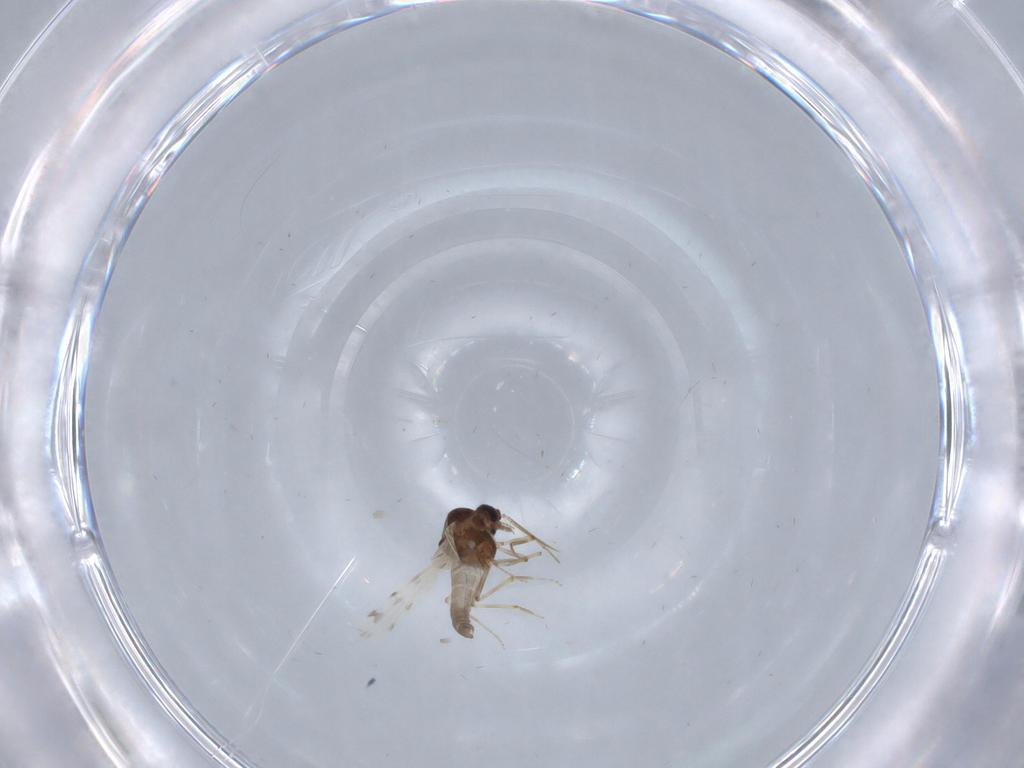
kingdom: Animalia
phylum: Arthropoda
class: Insecta
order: Diptera
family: Ceratopogonidae
